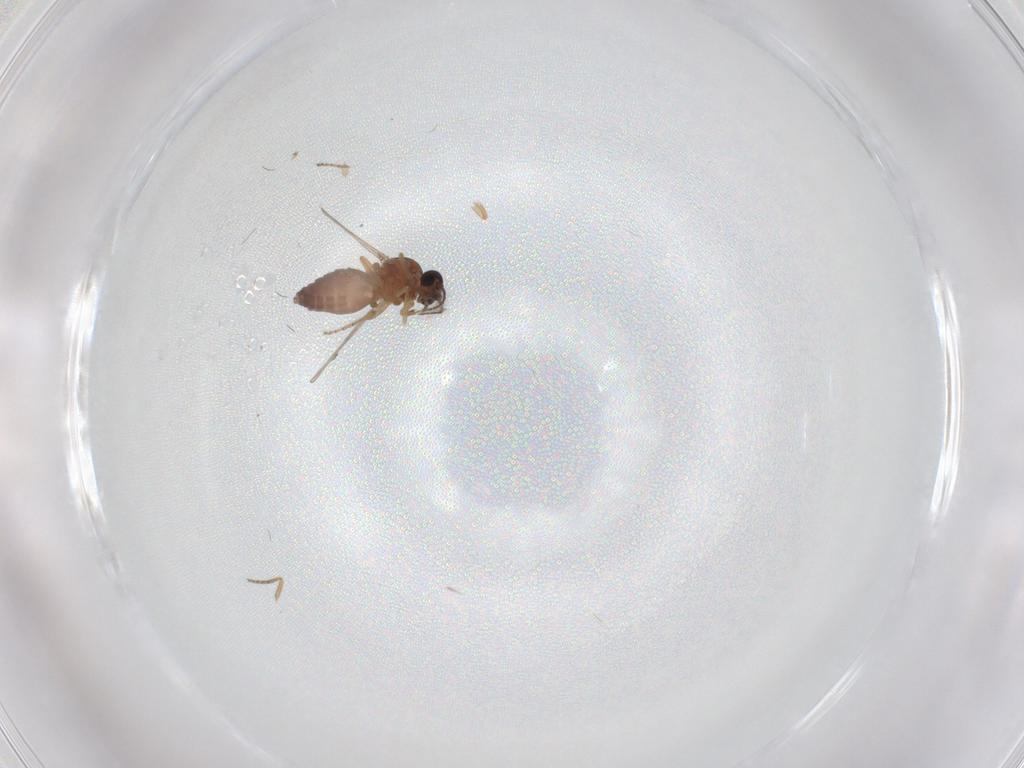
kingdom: Animalia
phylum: Arthropoda
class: Insecta
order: Diptera
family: Ceratopogonidae
